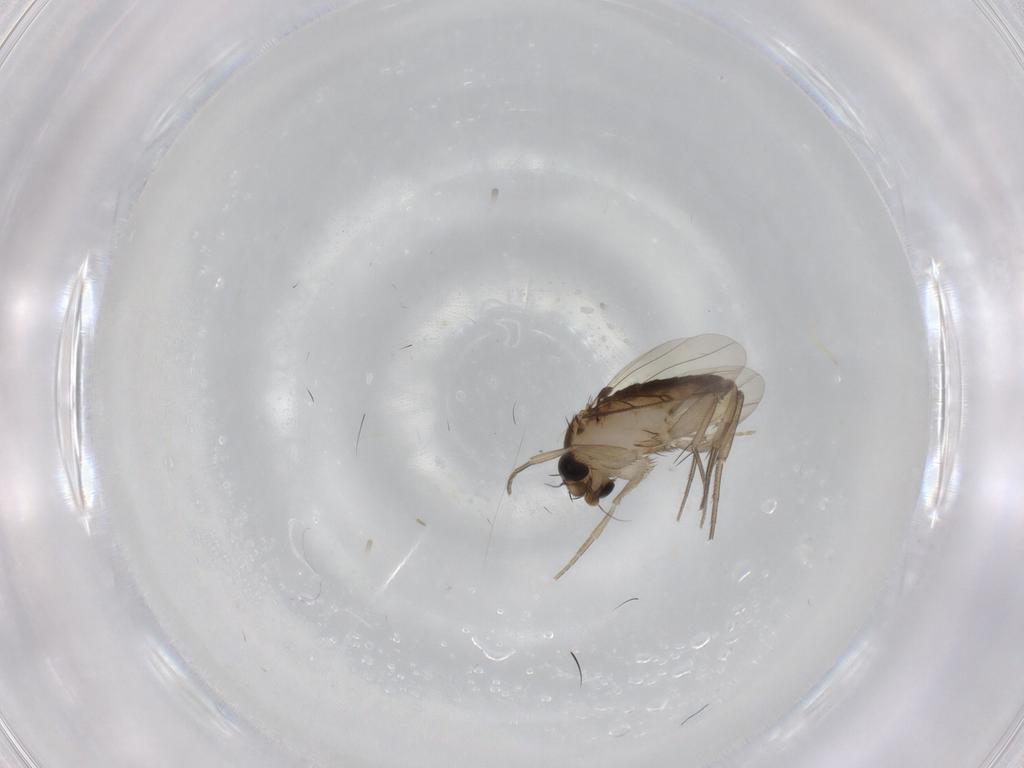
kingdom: Animalia
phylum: Arthropoda
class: Insecta
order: Diptera
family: Phoridae
